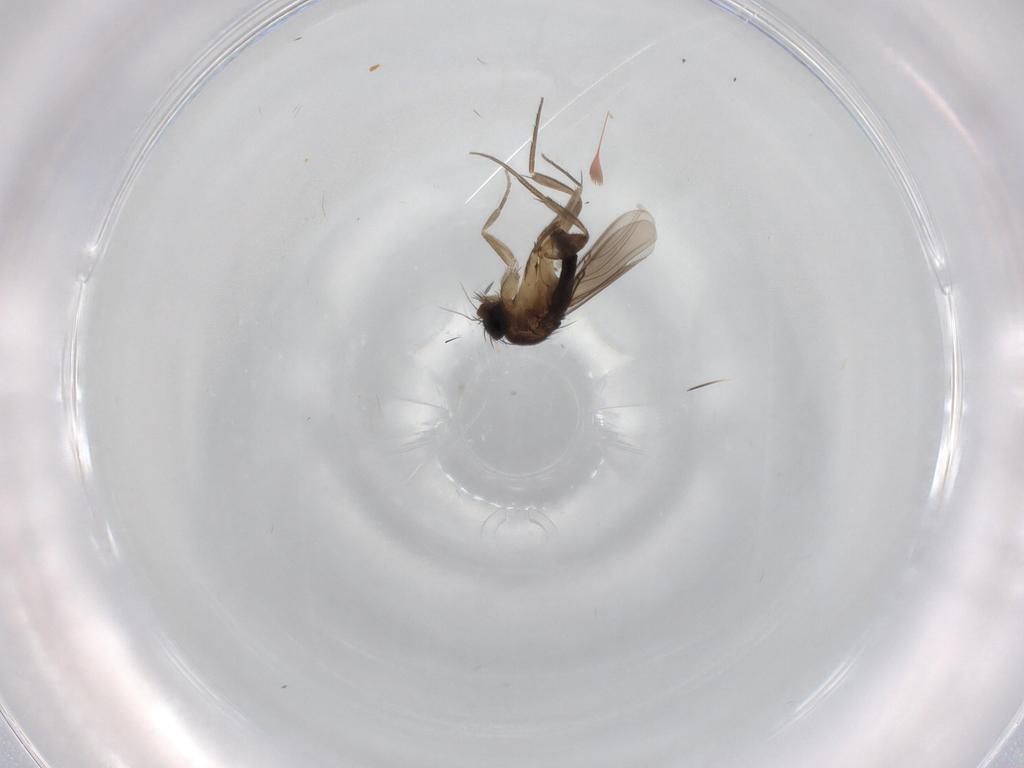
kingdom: Animalia
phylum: Arthropoda
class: Insecta
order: Diptera
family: Phoridae
